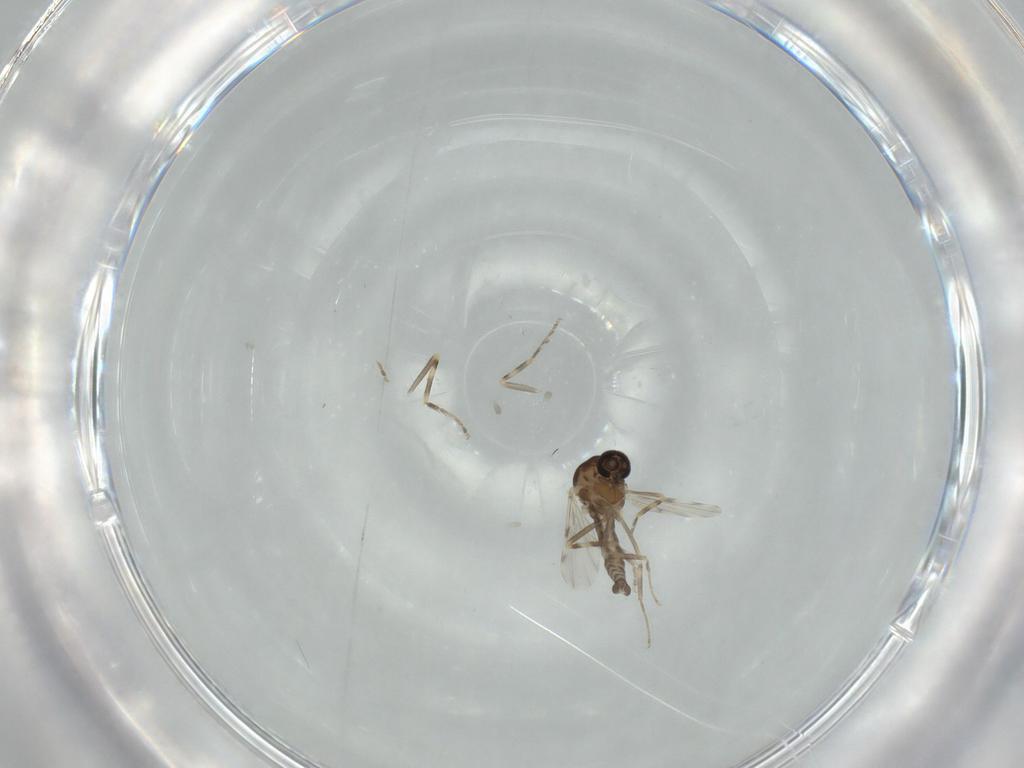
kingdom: Animalia
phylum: Arthropoda
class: Insecta
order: Diptera
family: Ceratopogonidae
